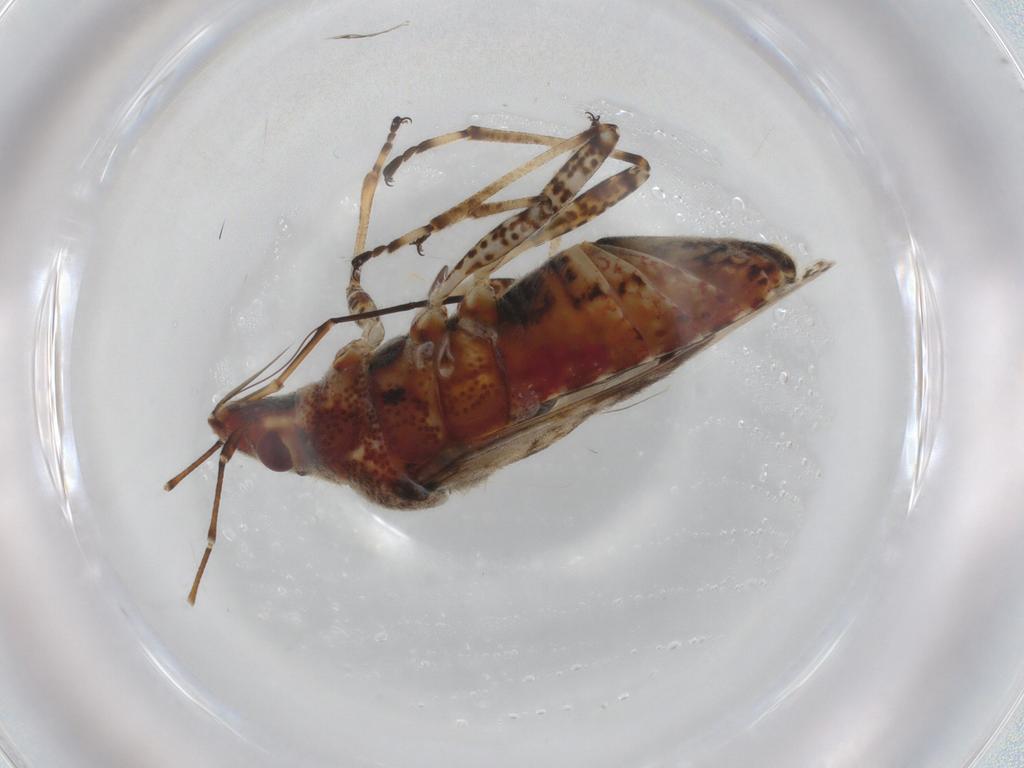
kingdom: Animalia
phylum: Arthropoda
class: Insecta
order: Hemiptera
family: Lygaeidae
